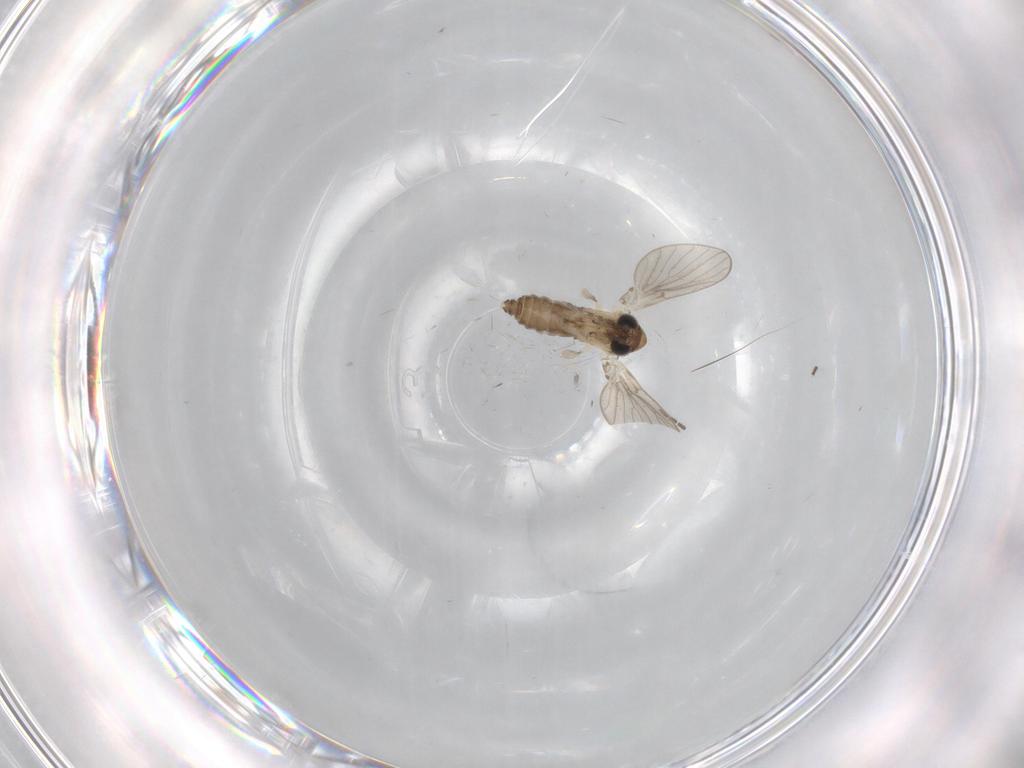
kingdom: Animalia
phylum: Arthropoda
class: Insecta
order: Diptera
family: Psychodidae
